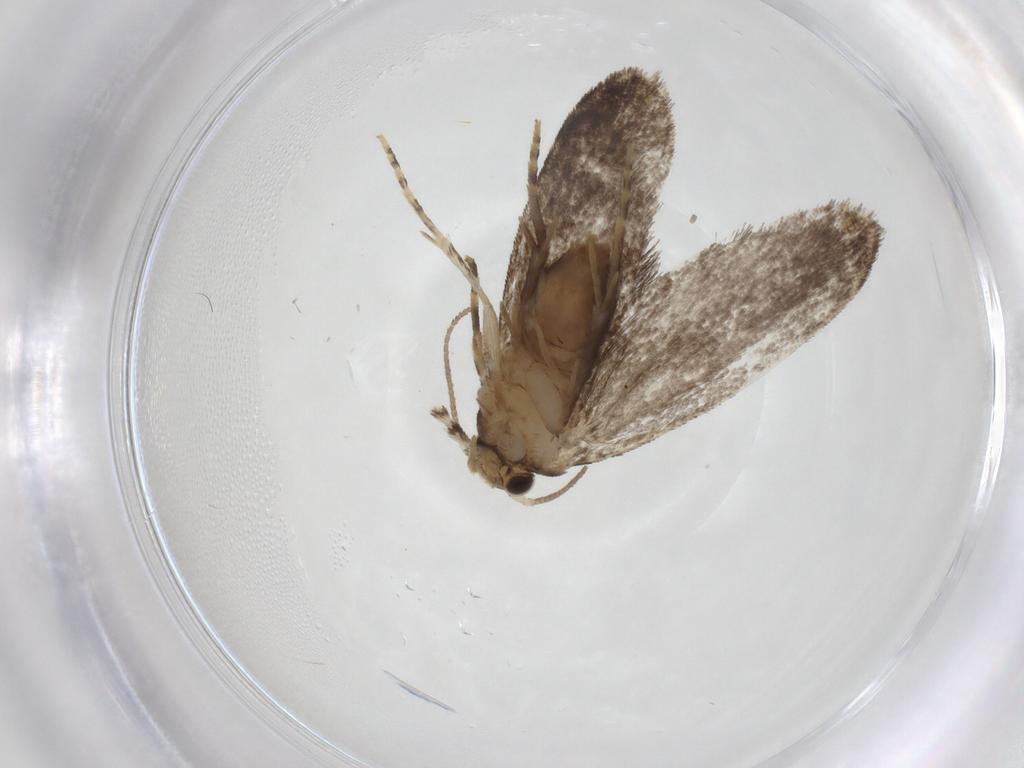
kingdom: Animalia
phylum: Arthropoda
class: Insecta
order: Lepidoptera
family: Tineidae
